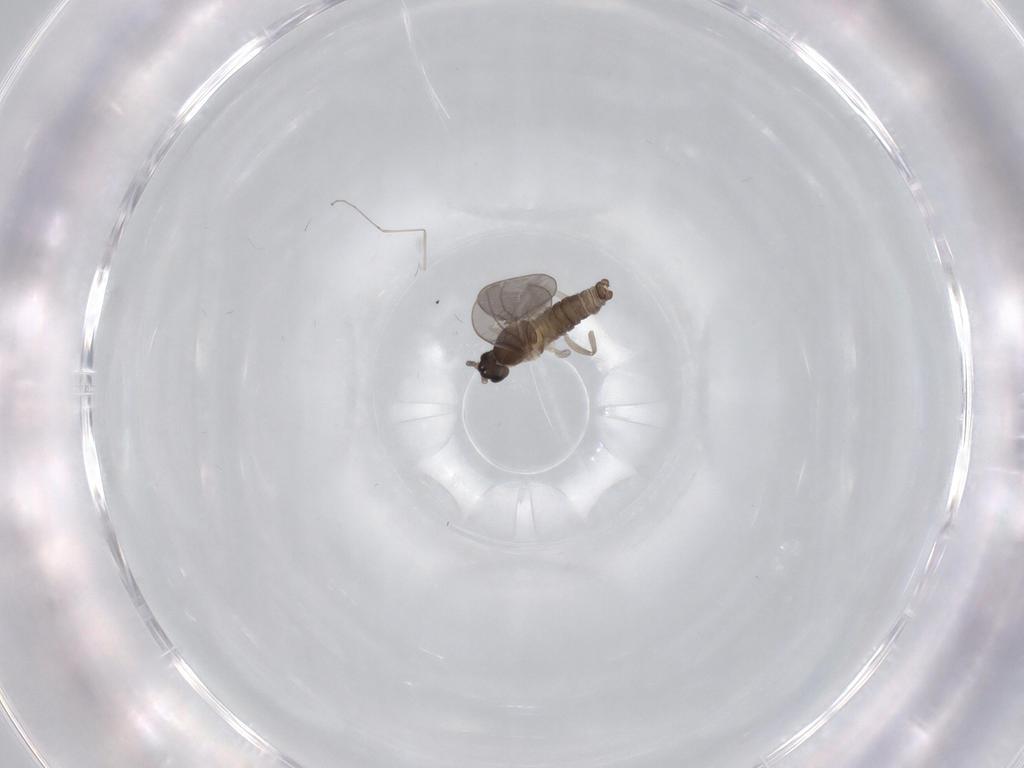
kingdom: Animalia
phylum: Arthropoda
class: Insecta
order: Diptera
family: Cecidomyiidae
